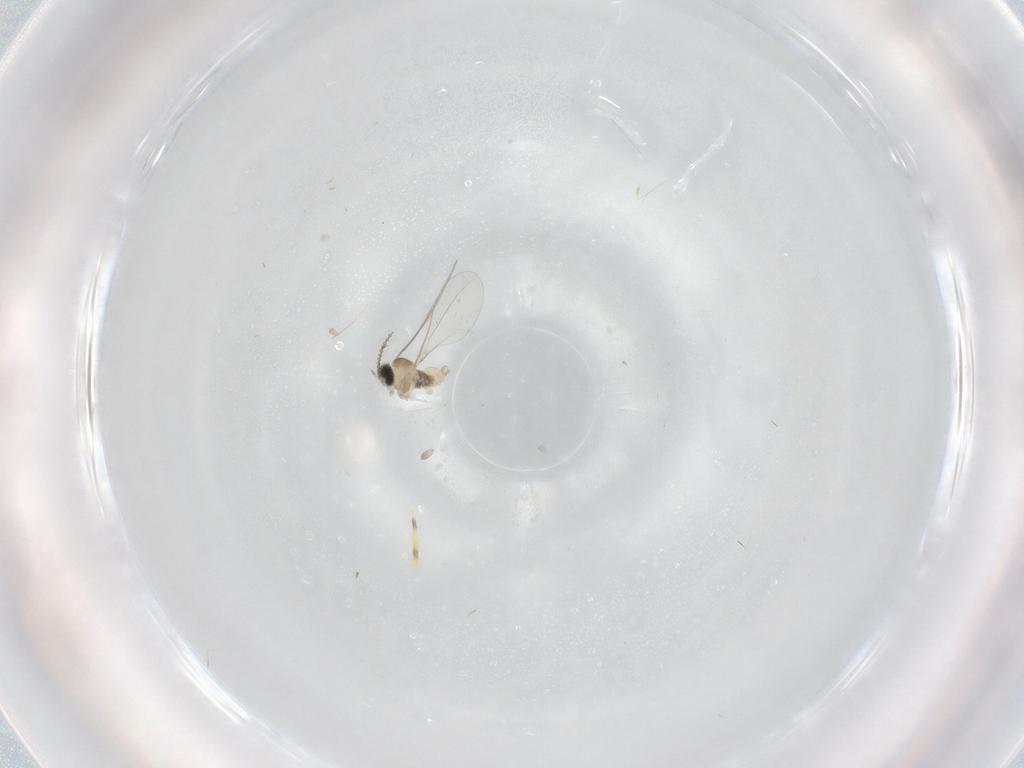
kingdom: Animalia
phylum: Arthropoda
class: Insecta
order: Diptera
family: Cecidomyiidae
